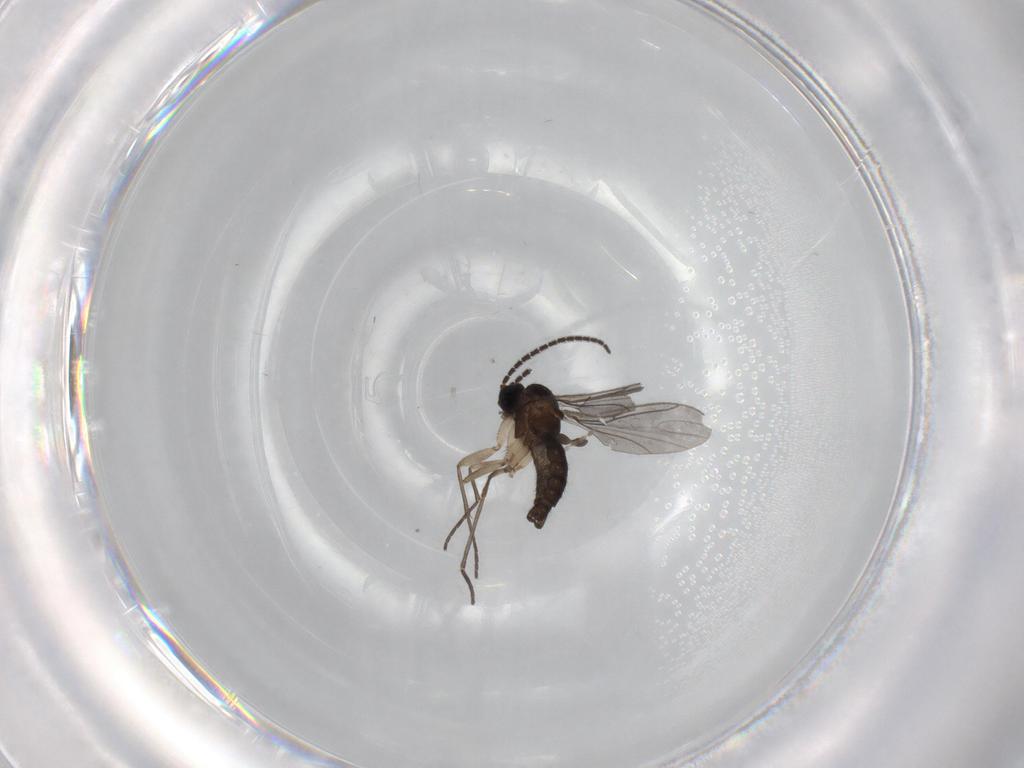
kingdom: Animalia
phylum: Arthropoda
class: Insecta
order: Diptera
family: Sciaridae
